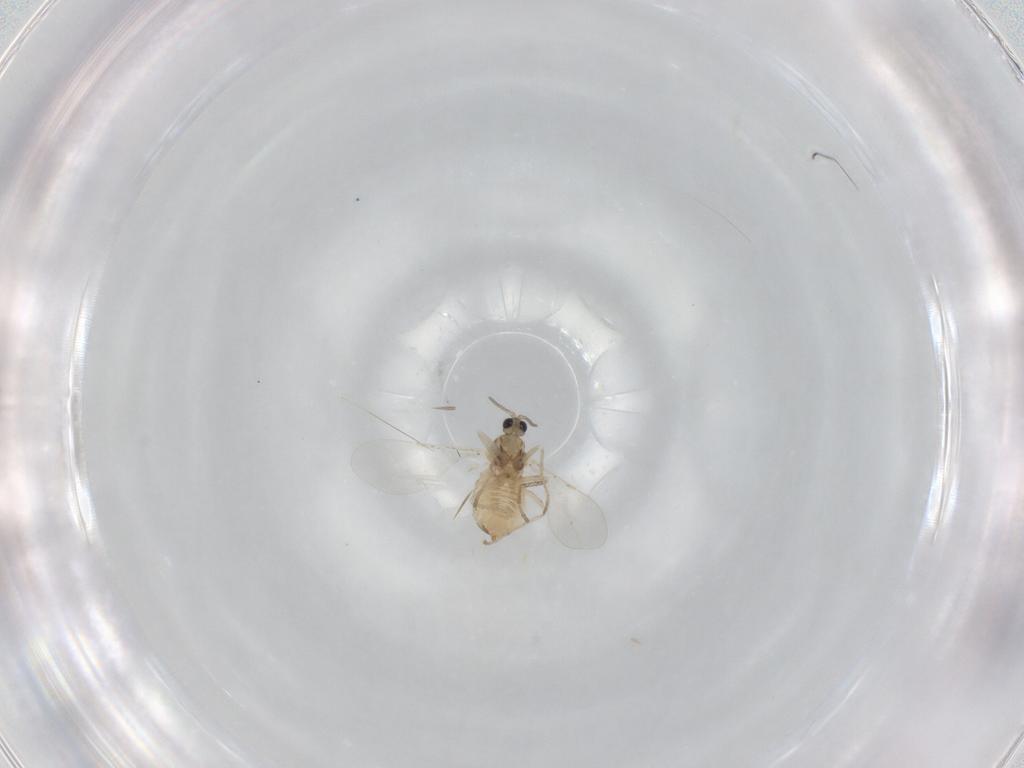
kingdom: Animalia
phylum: Arthropoda
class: Insecta
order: Diptera
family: Cecidomyiidae
